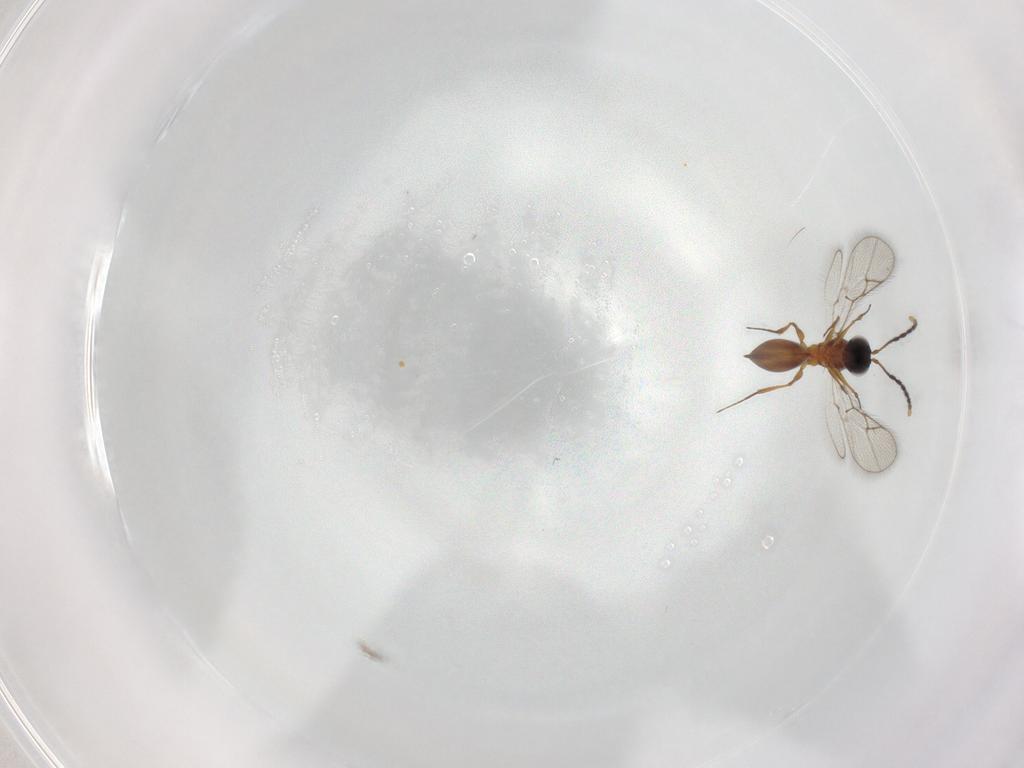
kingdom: Animalia
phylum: Arthropoda
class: Insecta
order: Hymenoptera
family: Figitidae
